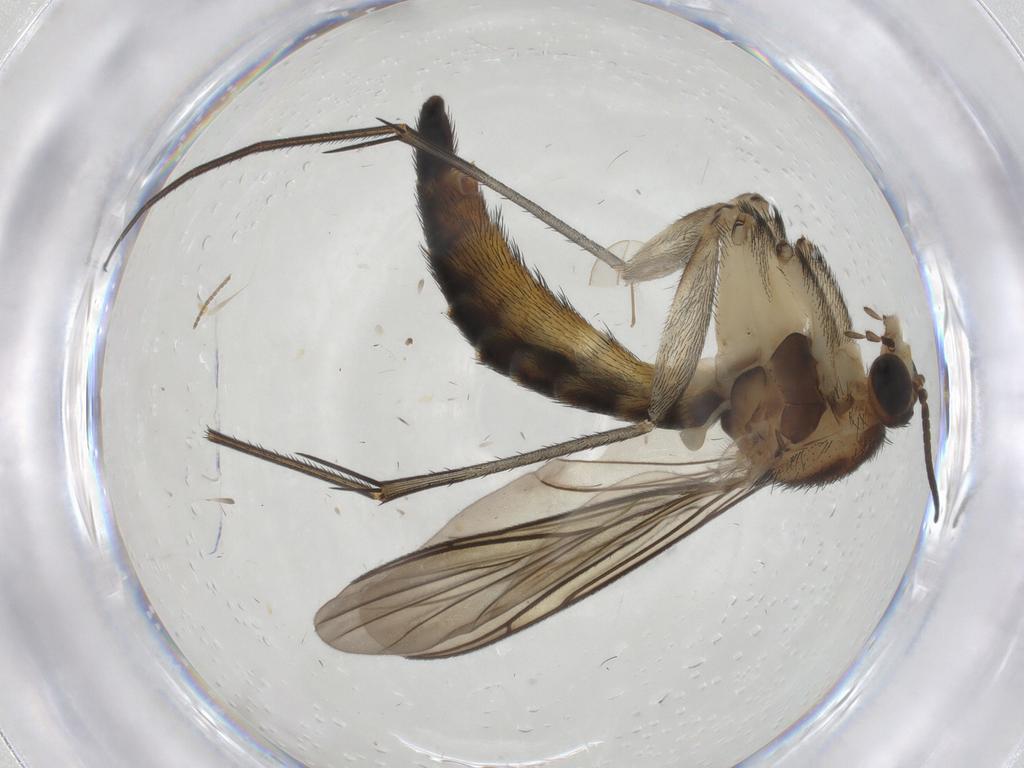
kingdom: Animalia
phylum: Arthropoda
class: Insecta
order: Diptera
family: Keroplatidae
